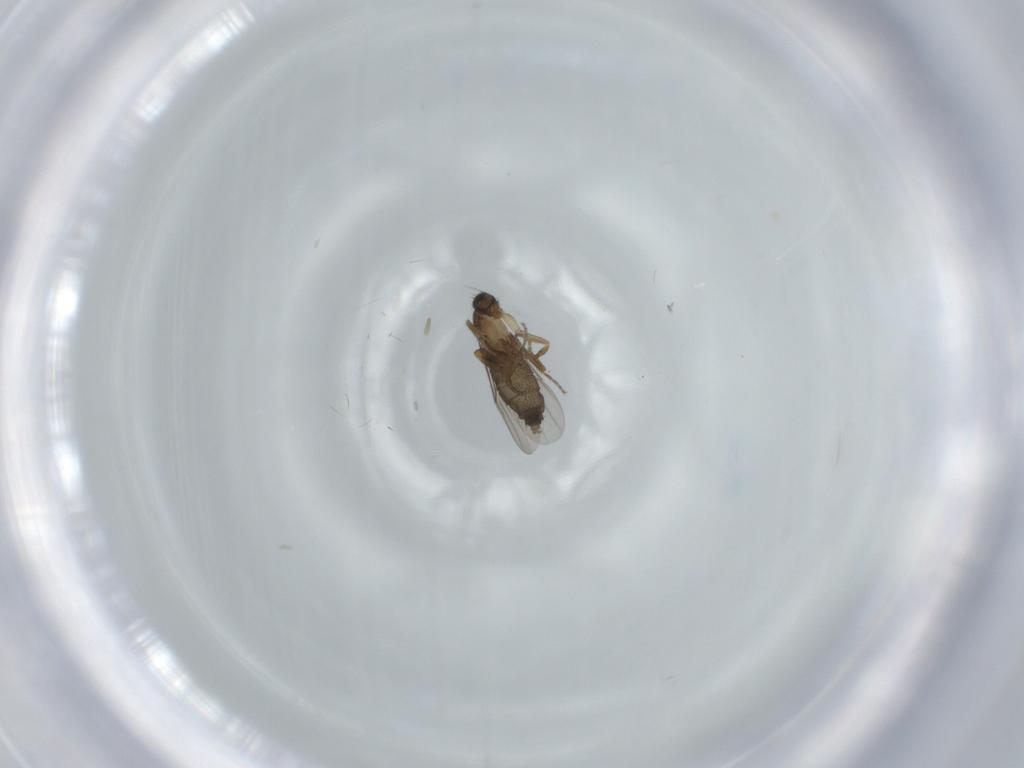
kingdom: Animalia
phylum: Arthropoda
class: Insecta
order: Diptera
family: Phoridae
